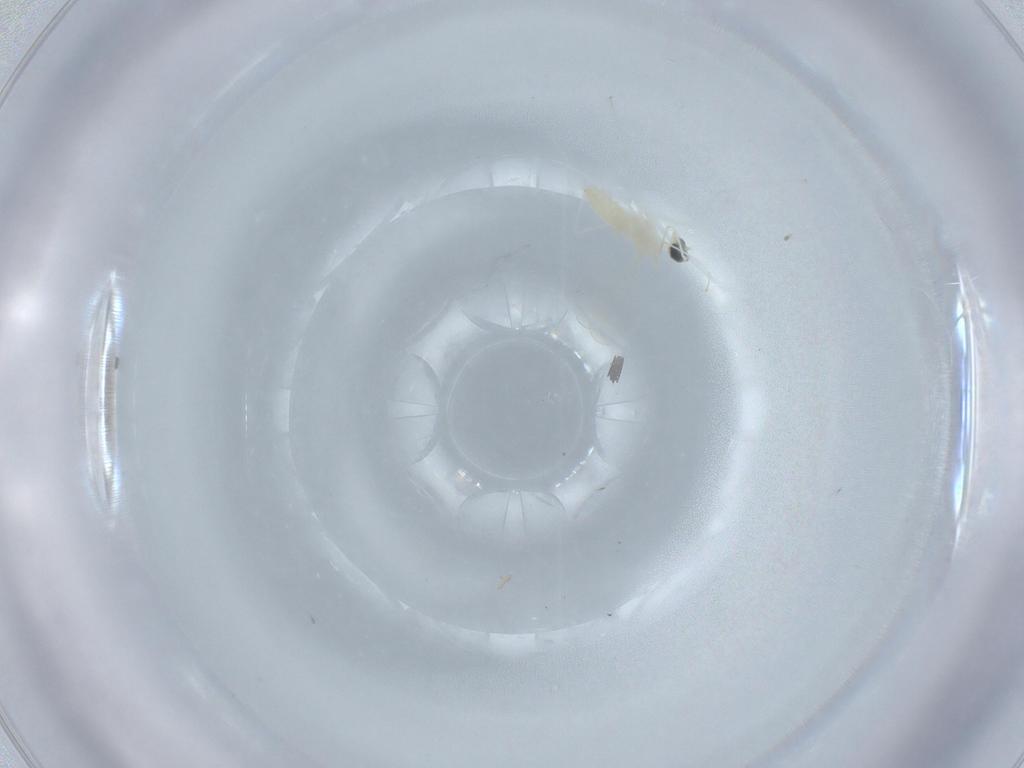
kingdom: Animalia
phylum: Arthropoda
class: Insecta
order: Diptera
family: Cecidomyiidae
